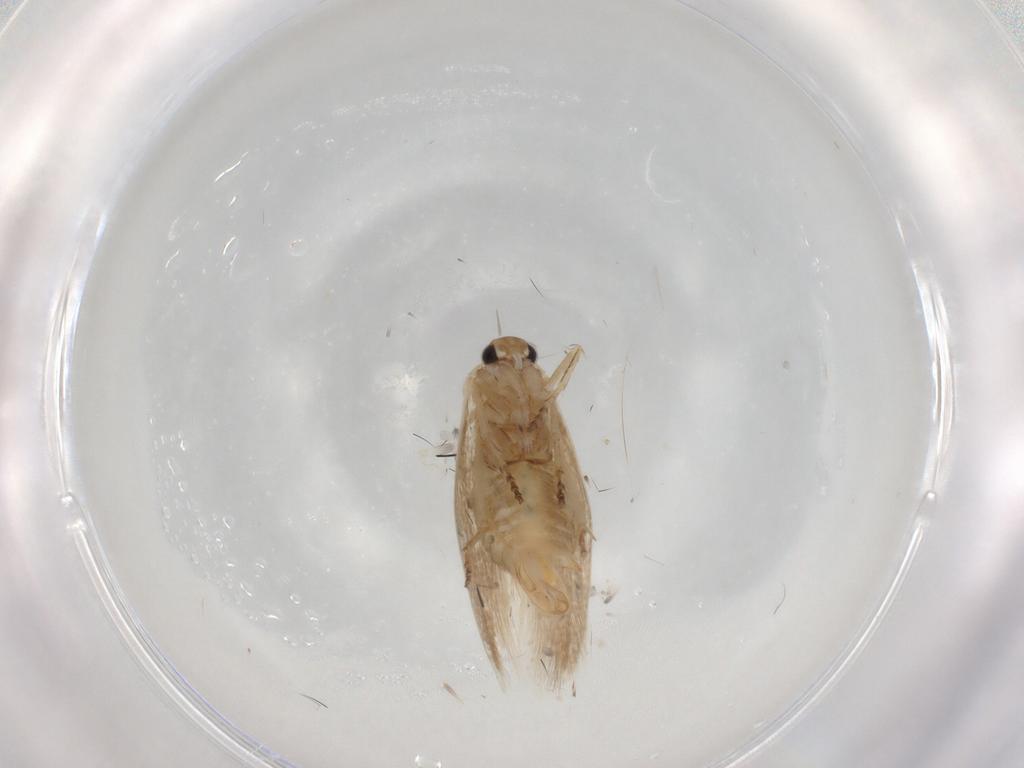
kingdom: Animalia
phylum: Arthropoda
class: Insecta
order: Lepidoptera
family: Bucculatricidae
